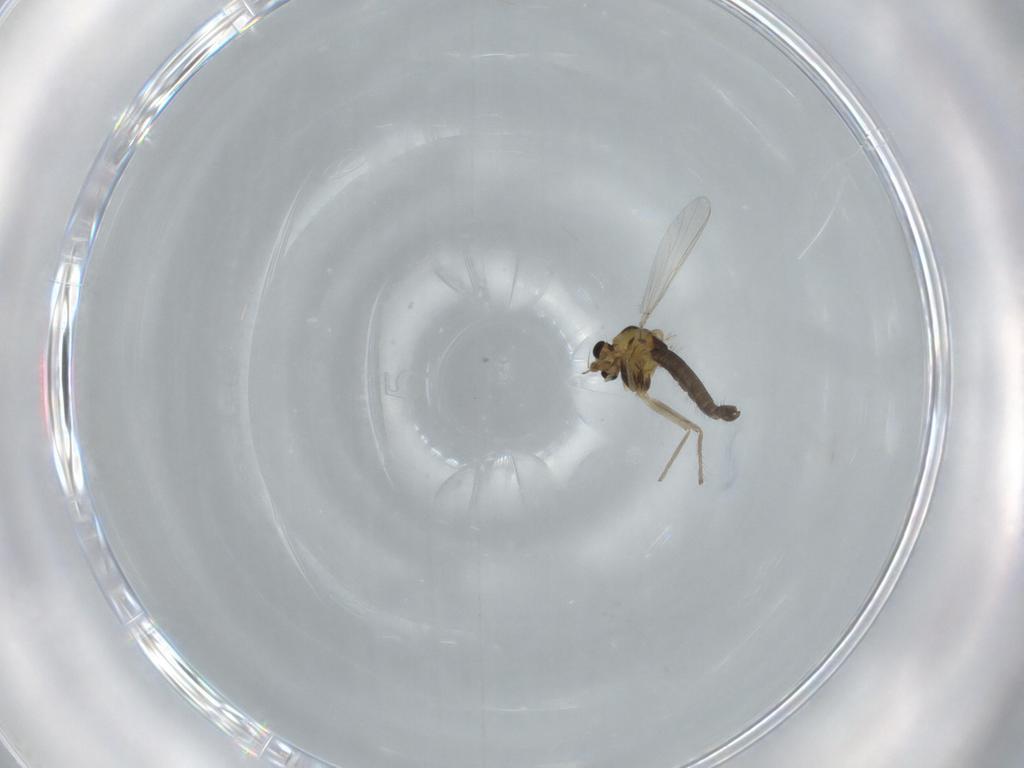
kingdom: Animalia
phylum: Arthropoda
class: Insecta
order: Diptera
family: Chironomidae
